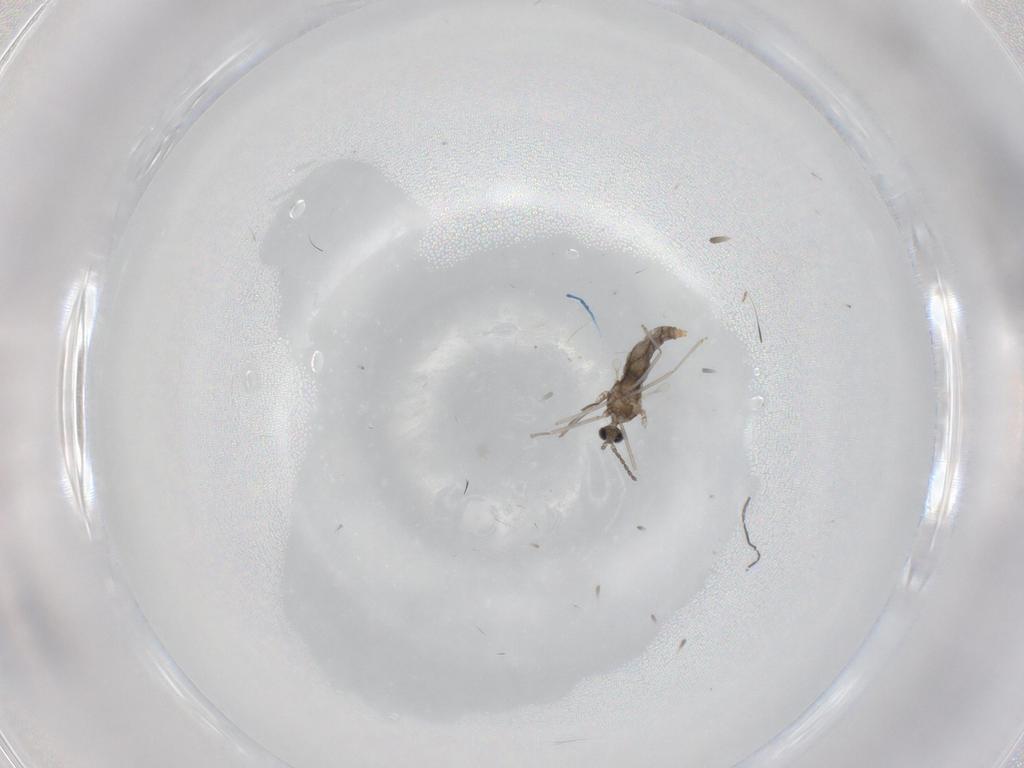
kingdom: Animalia
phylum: Arthropoda
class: Insecta
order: Diptera
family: Cecidomyiidae
